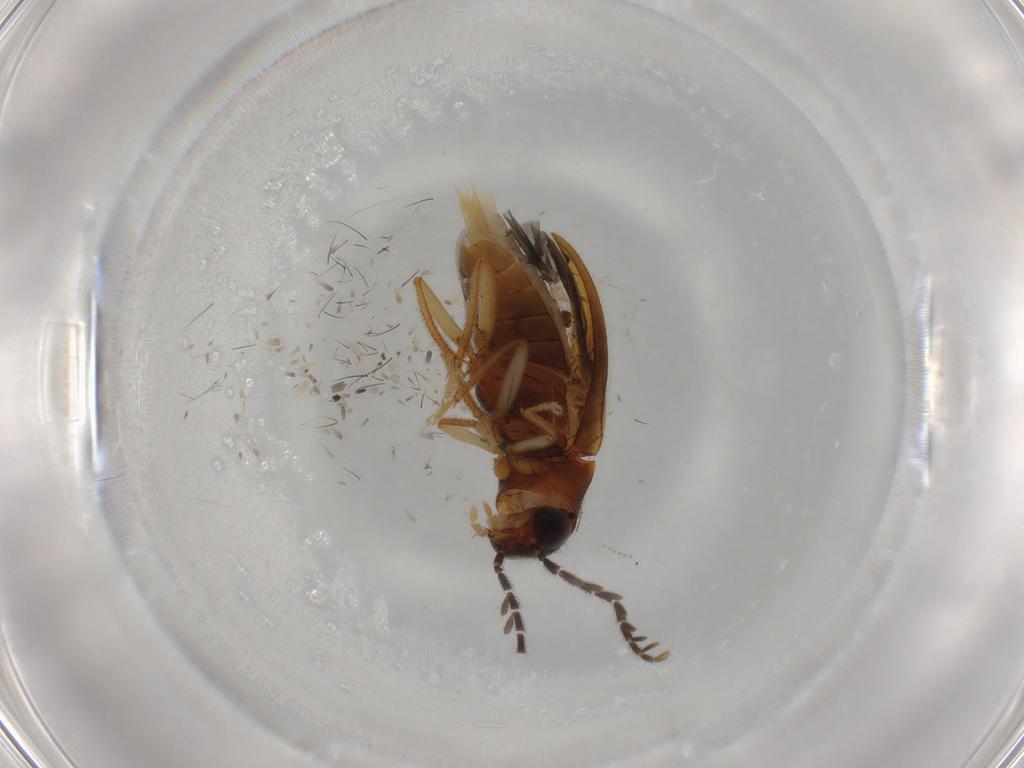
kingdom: Animalia
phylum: Arthropoda
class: Insecta
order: Coleoptera
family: Ptilodactylidae
